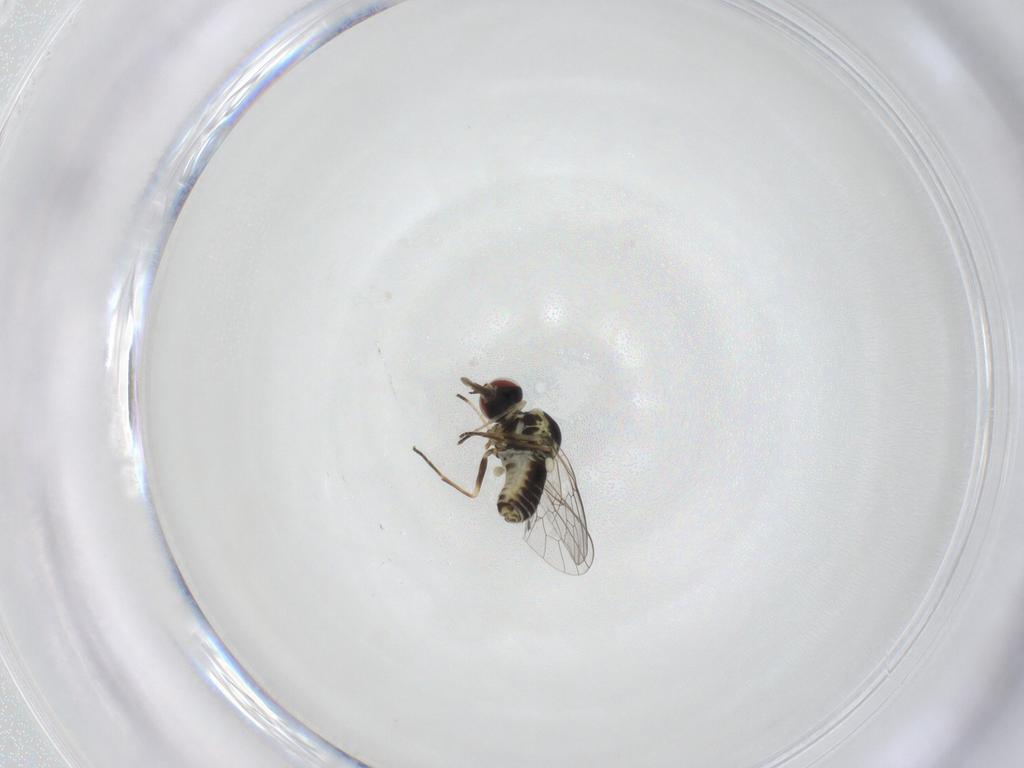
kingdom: Animalia
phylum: Arthropoda
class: Insecta
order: Diptera
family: Mythicomyiidae
